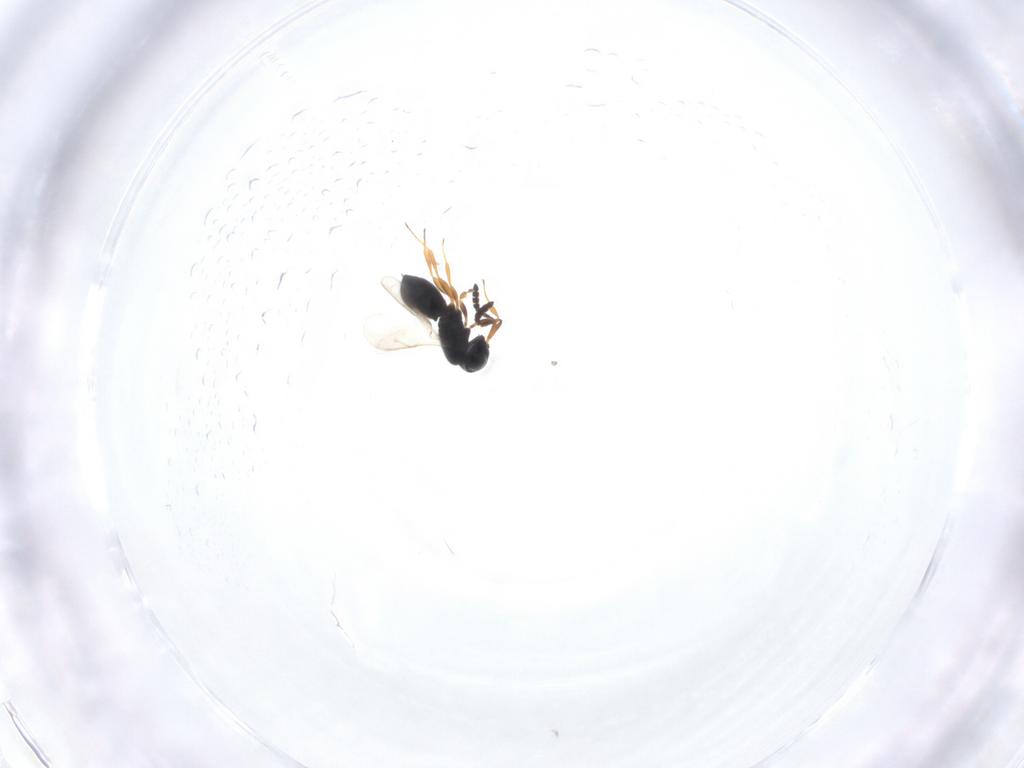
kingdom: Animalia
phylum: Arthropoda
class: Insecta
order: Hymenoptera
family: Scelionidae
